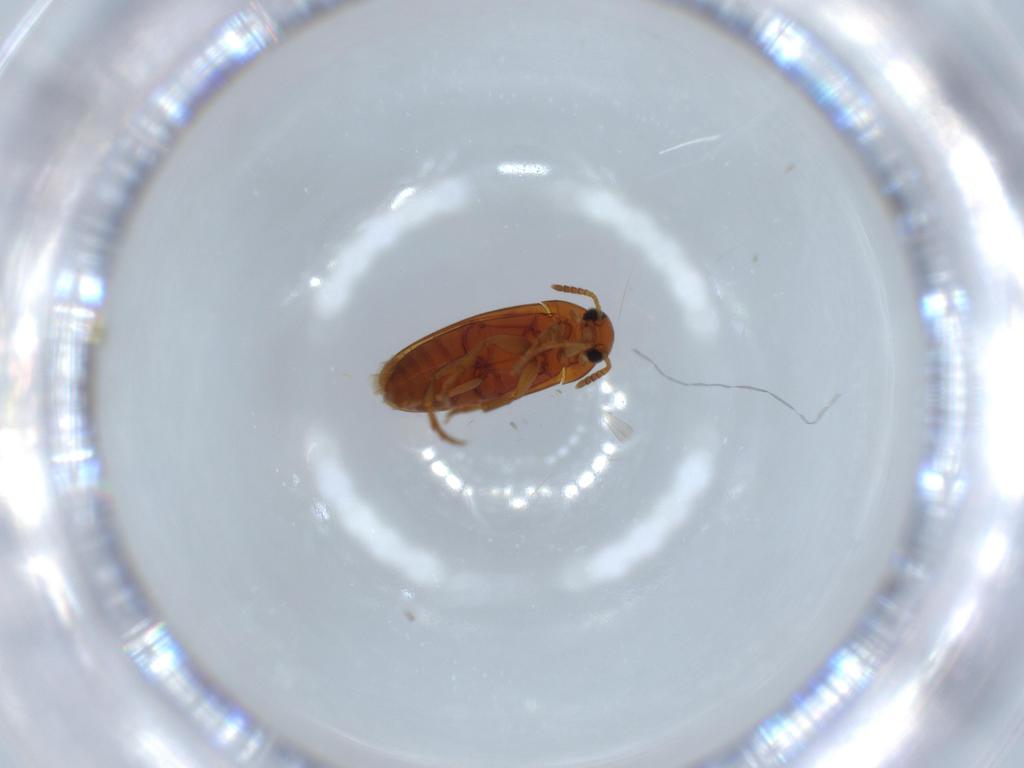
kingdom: Animalia
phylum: Arthropoda
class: Insecta
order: Coleoptera
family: Scraptiidae
